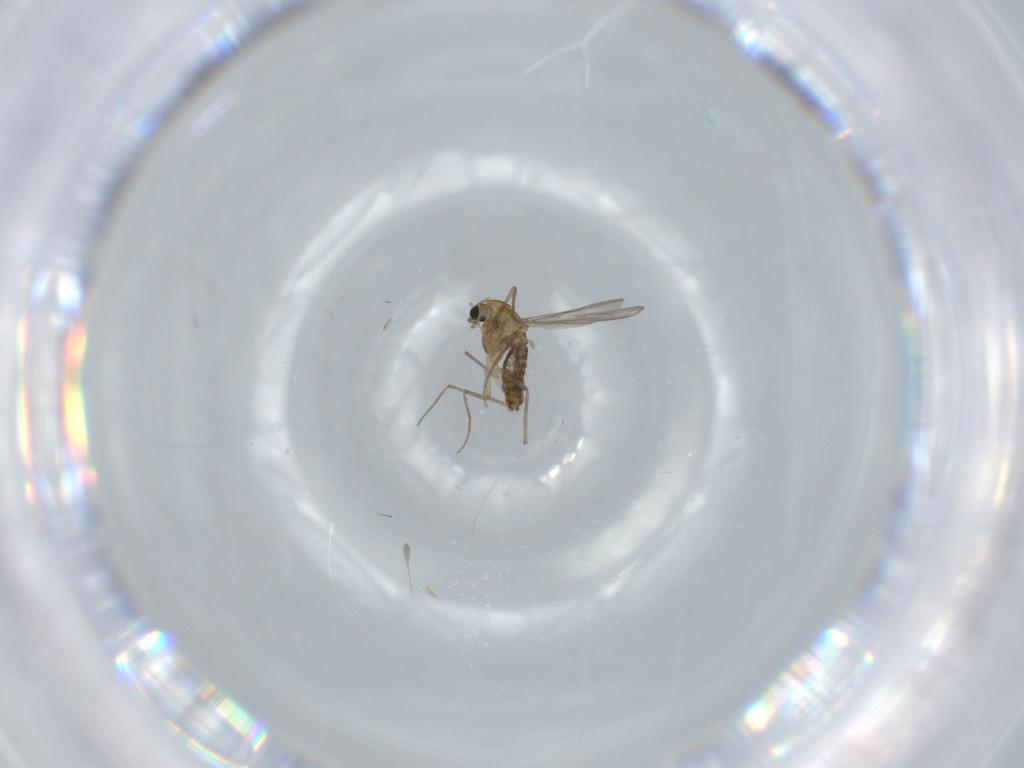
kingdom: Animalia
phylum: Arthropoda
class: Insecta
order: Diptera
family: Chironomidae
